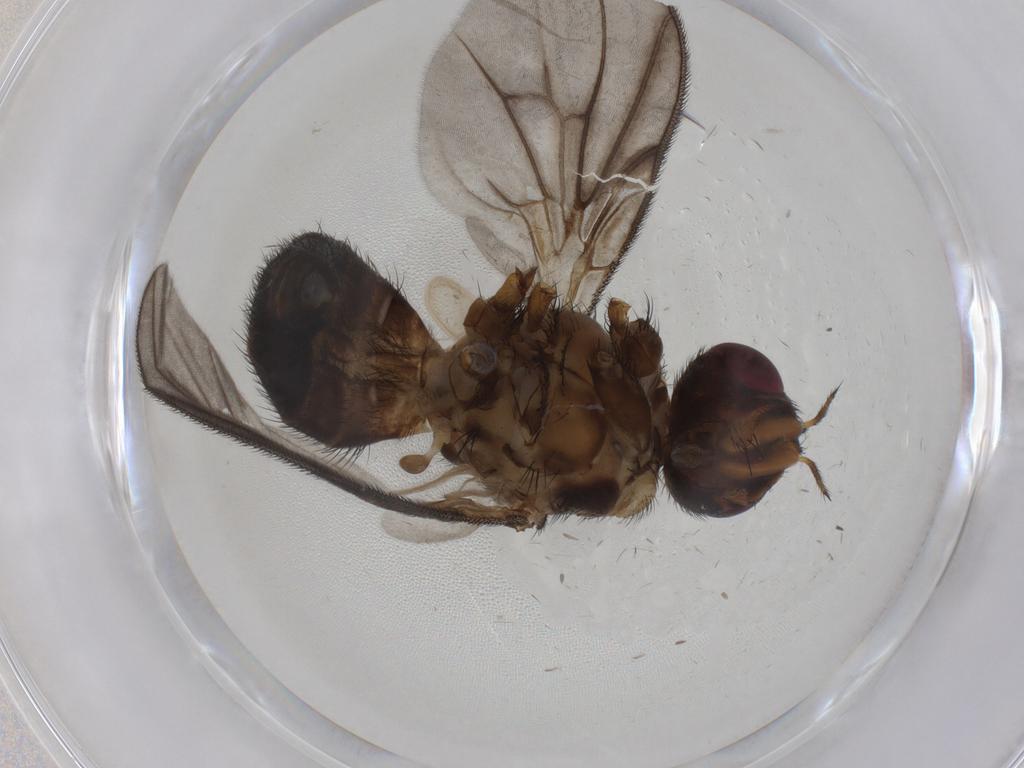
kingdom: Animalia
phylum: Arthropoda
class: Insecta
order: Diptera
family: Calliphoridae
